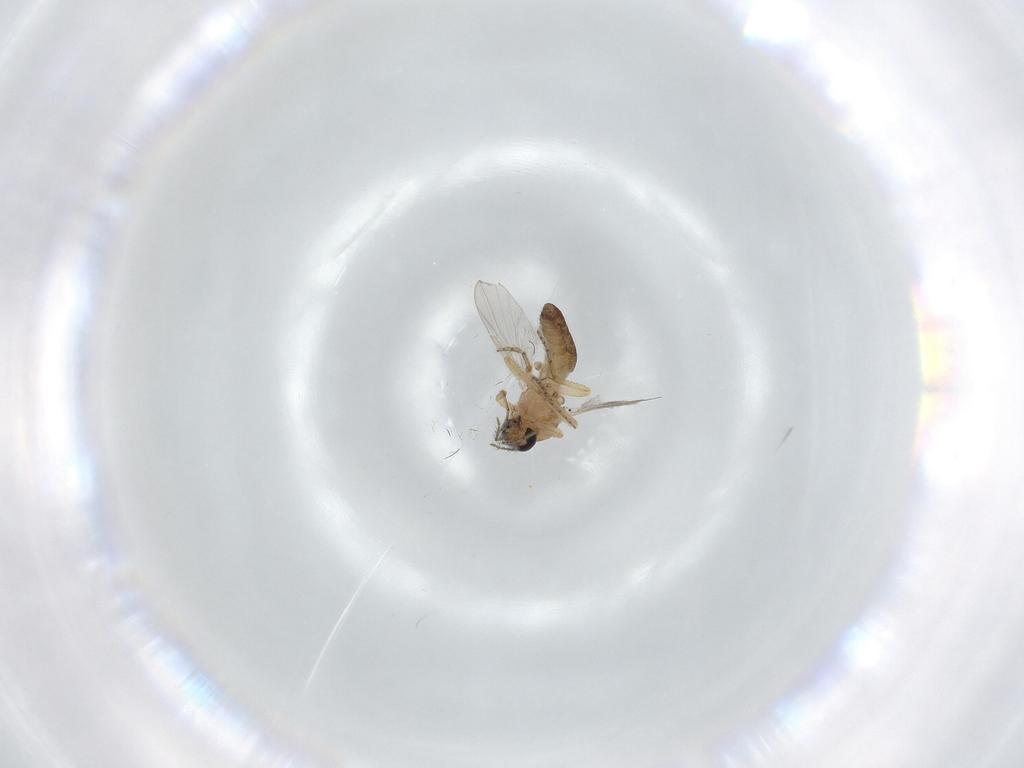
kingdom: Animalia
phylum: Arthropoda
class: Insecta
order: Diptera
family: Ceratopogonidae
